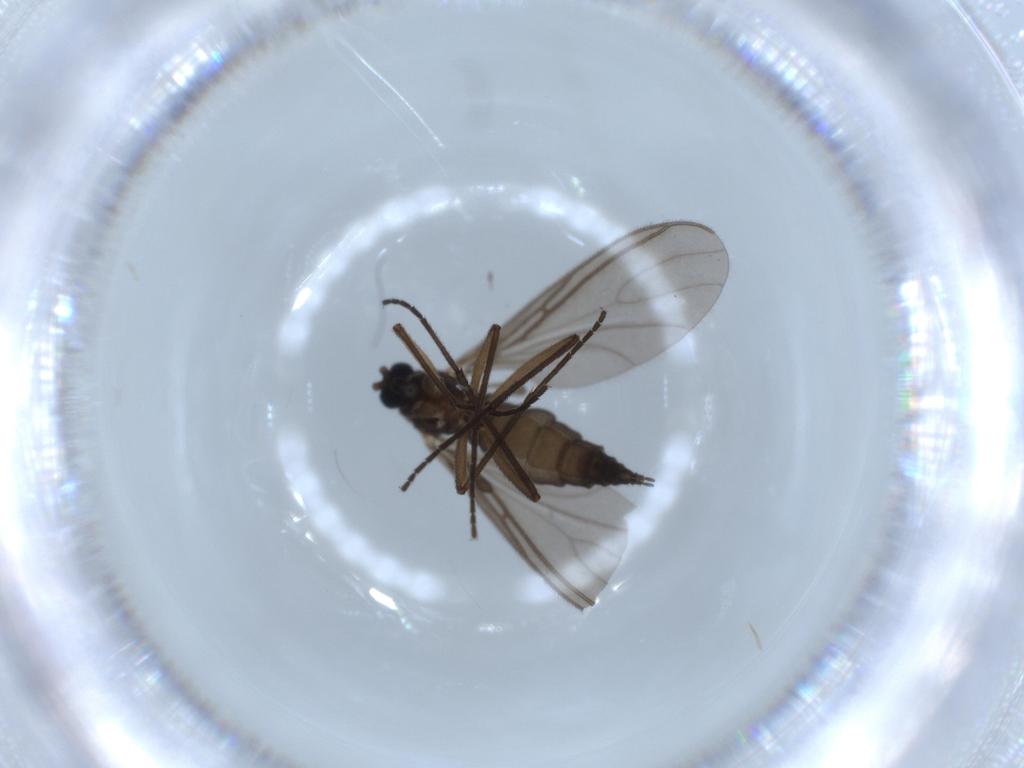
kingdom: Animalia
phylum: Arthropoda
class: Insecta
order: Diptera
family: Sciaridae
